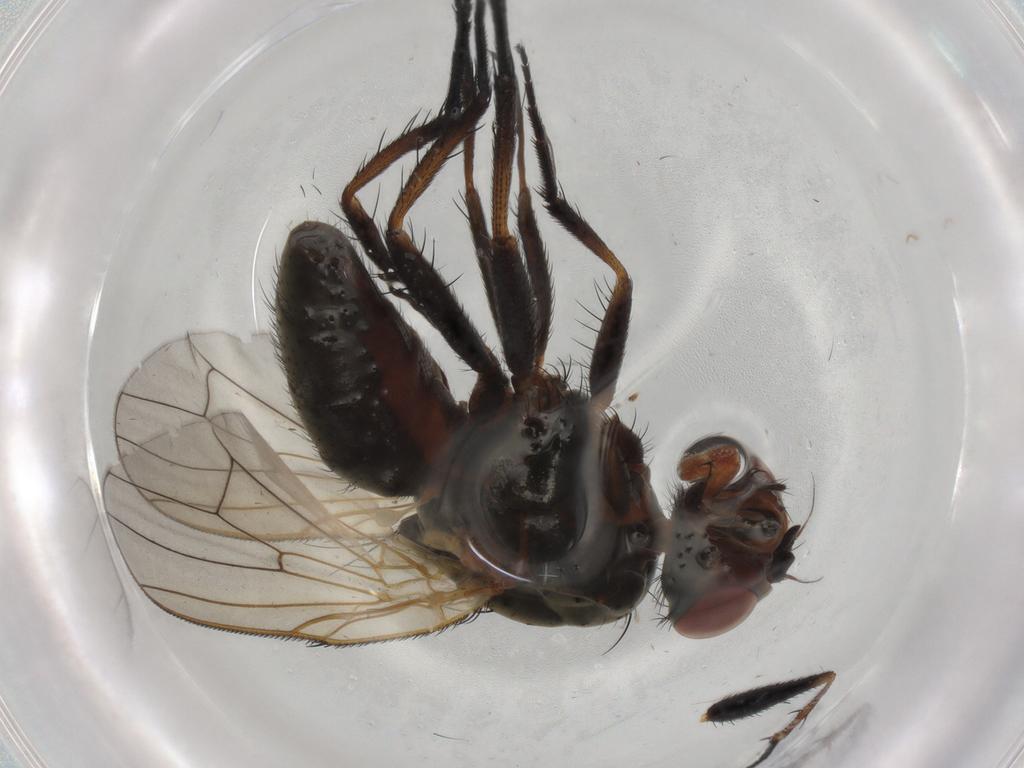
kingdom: Animalia
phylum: Arthropoda
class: Insecta
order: Diptera
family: Anthomyiidae
